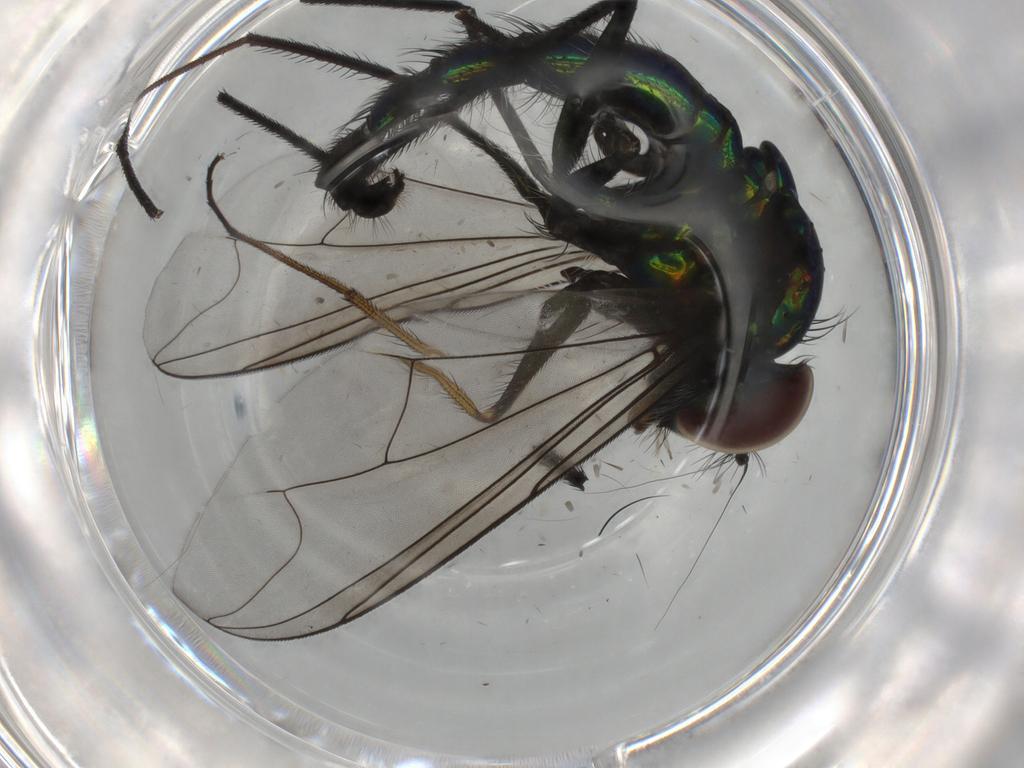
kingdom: Animalia
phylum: Arthropoda
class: Insecta
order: Diptera
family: Dolichopodidae
